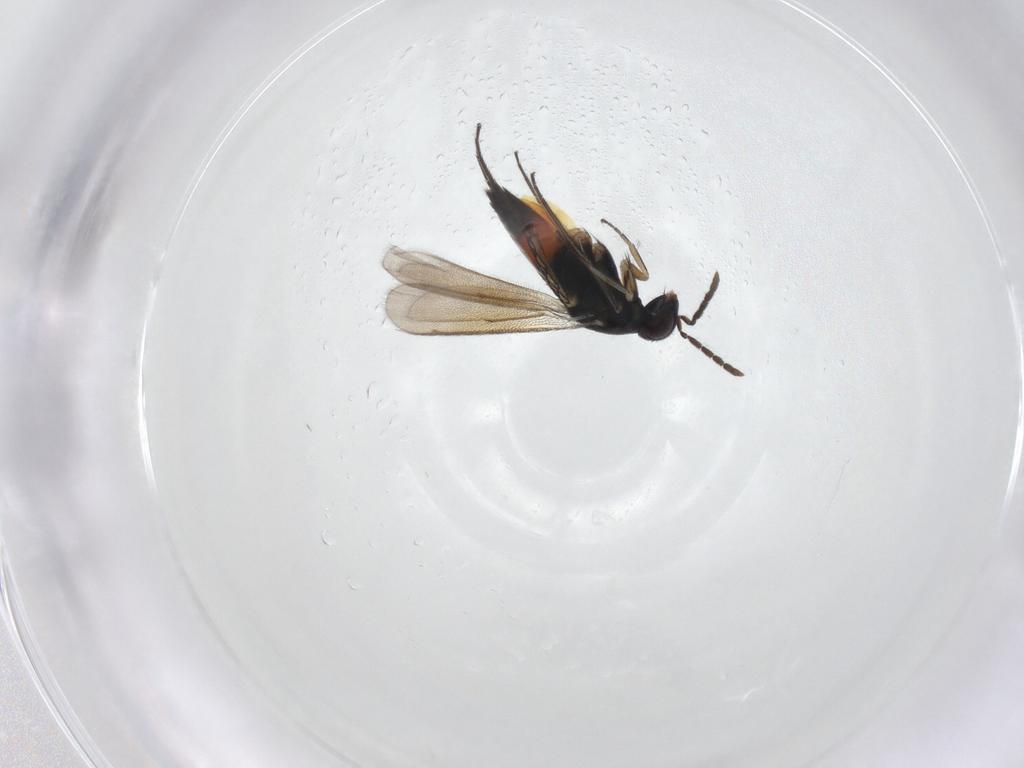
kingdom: Animalia
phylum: Arthropoda
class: Insecta
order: Hymenoptera
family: Eulophidae
